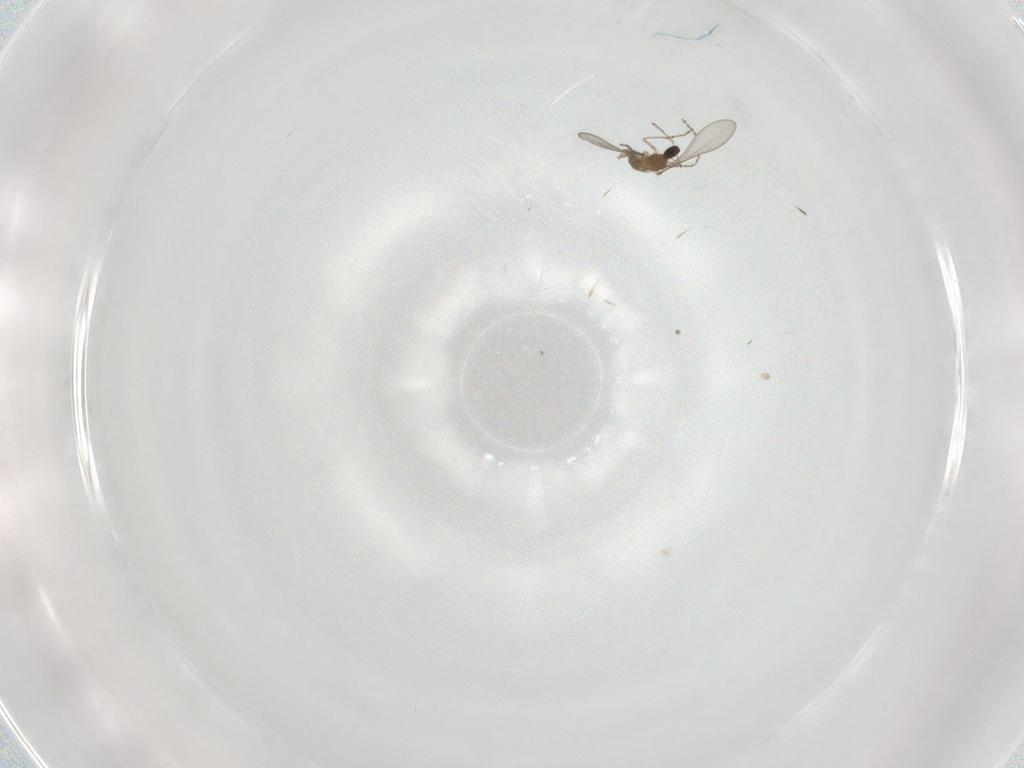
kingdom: Animalia
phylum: Arthropoda
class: Insecta
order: Diptera
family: Cecidomyiidae
